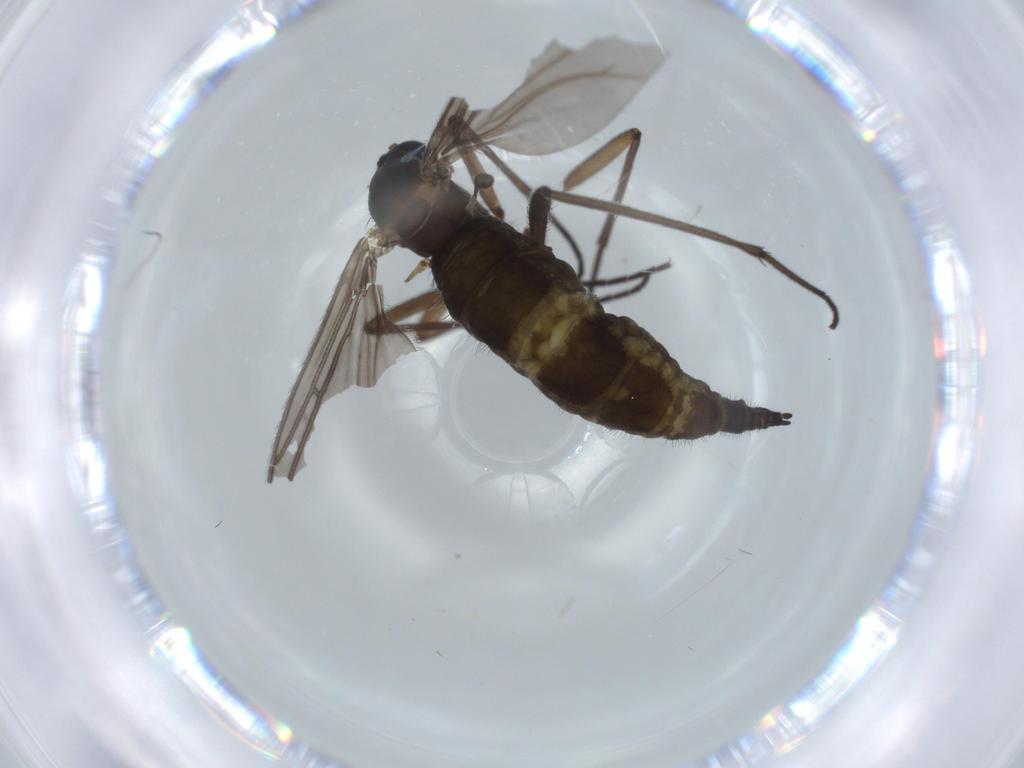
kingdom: Animalia
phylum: Arthropoda
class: Insecta
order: Diptera
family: Sciaridae
